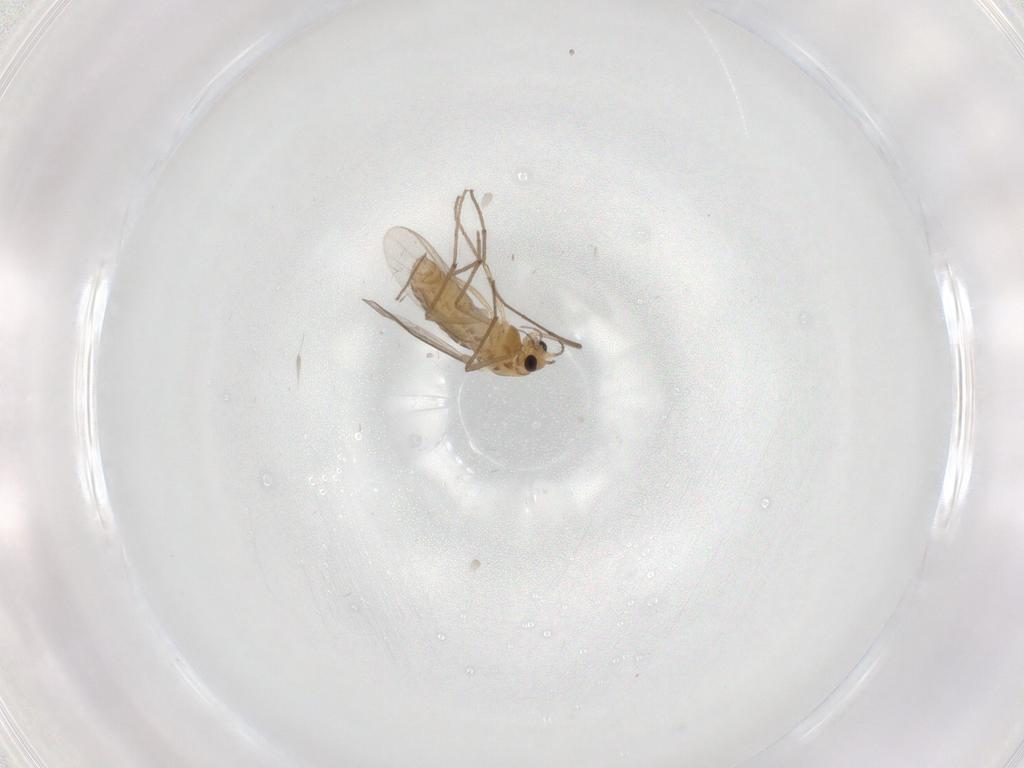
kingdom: Animalia
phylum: Arthropoda
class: Insecta
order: Diptera
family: Chironomidae
